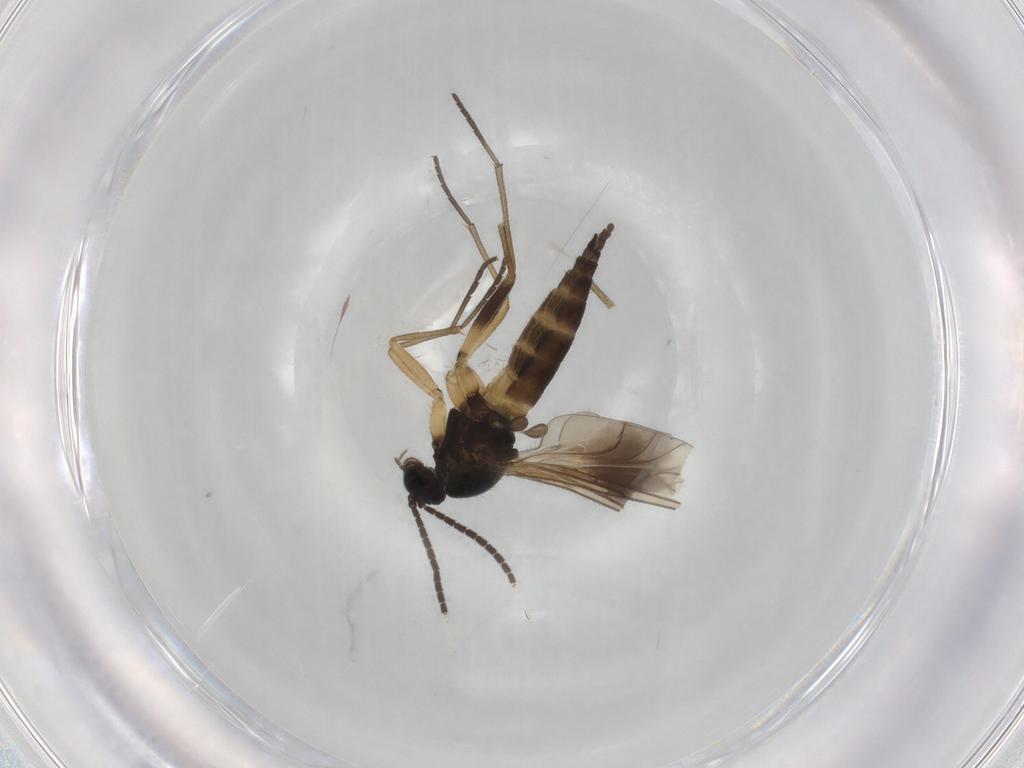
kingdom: Animalia
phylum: Arthropoda
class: Insecta
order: Diptera
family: Sciaridae
